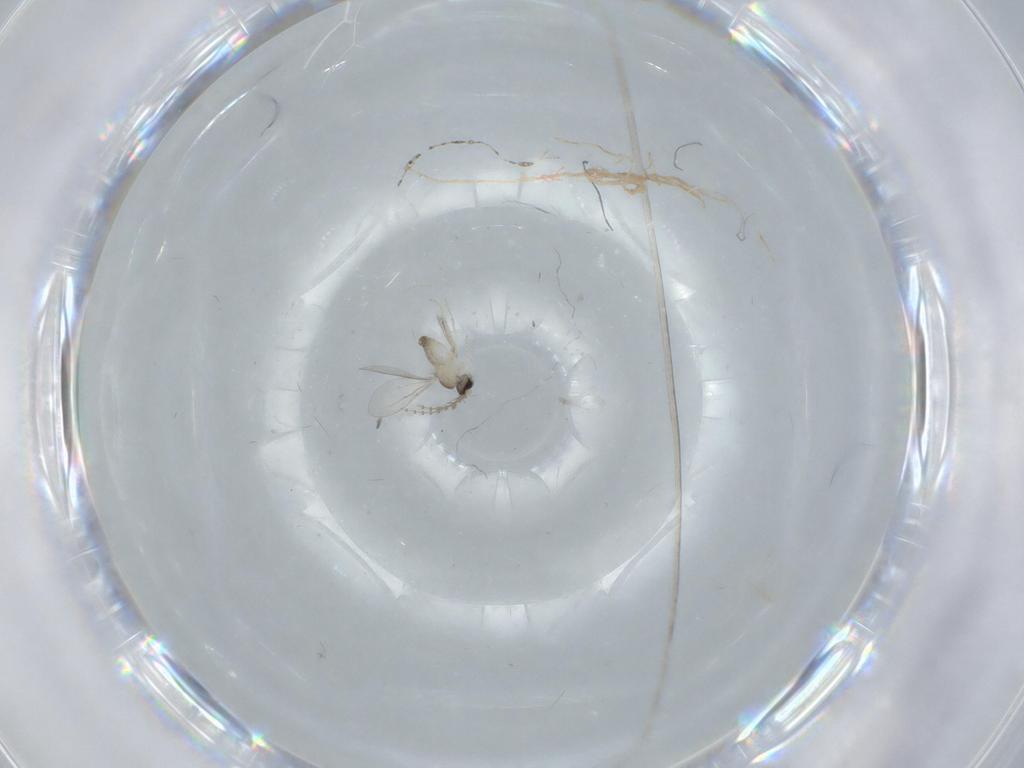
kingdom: Animalia
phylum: Arthropoda
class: Insecta
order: Diptera
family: Cecidomyiidae
